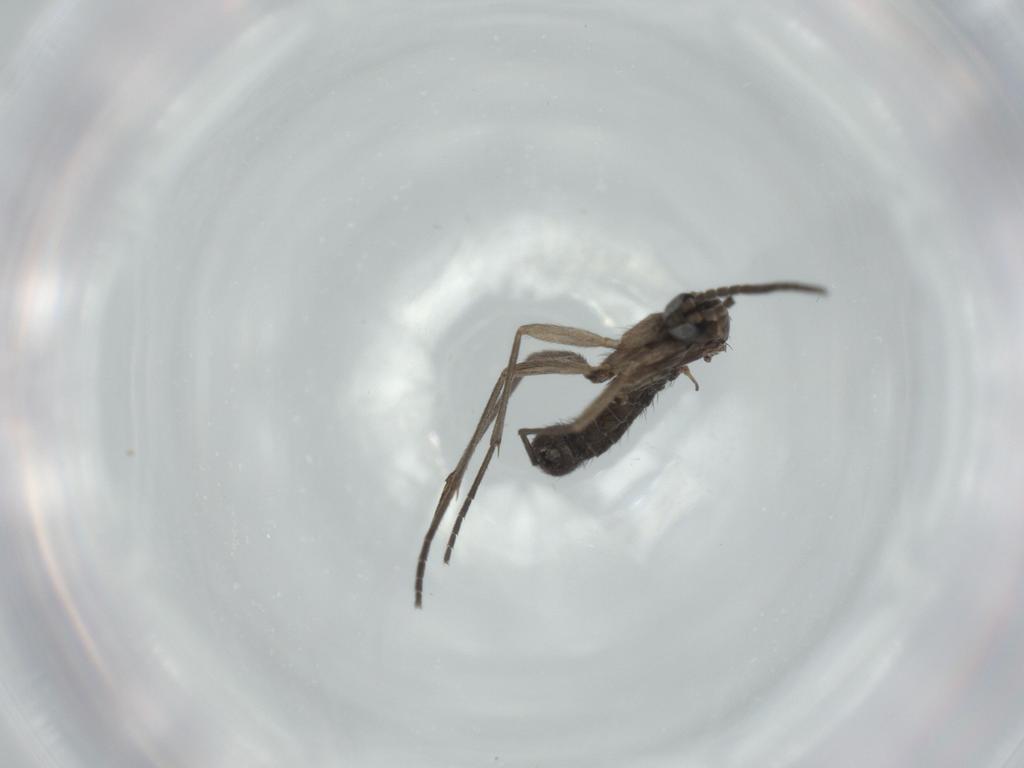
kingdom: Animalia
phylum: Arthropoda
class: Insecta
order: Diptera
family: Sciaridae
